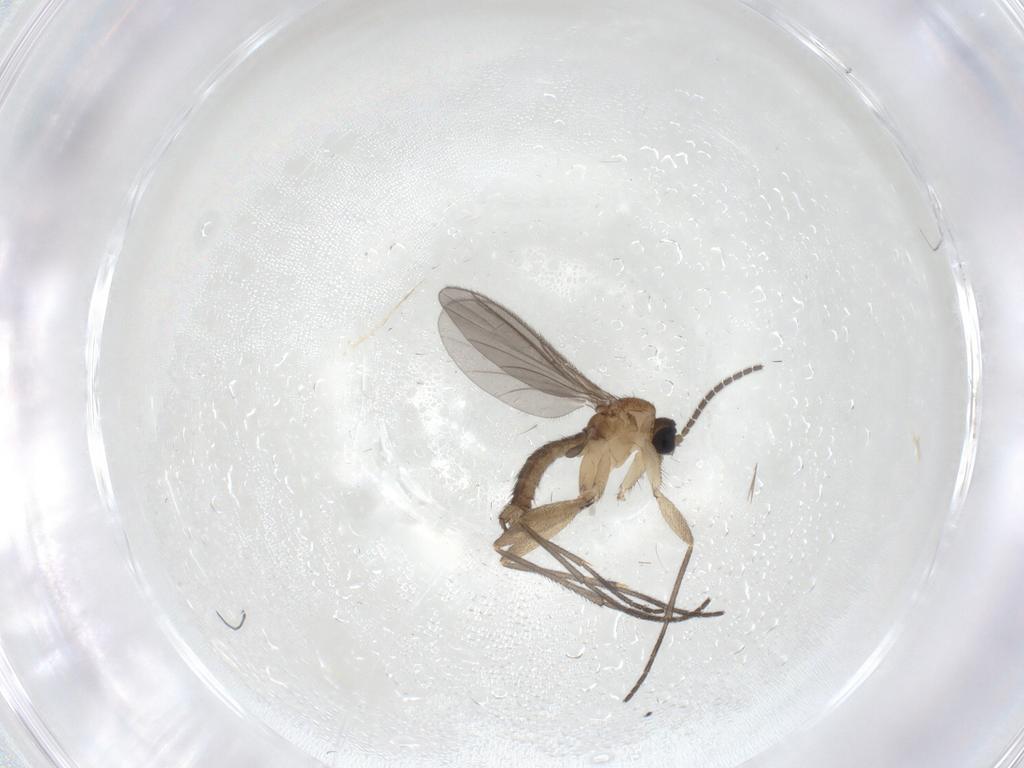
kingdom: Animalia
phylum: Arthropoda
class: Insecta
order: Diptera
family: Sciaridae
